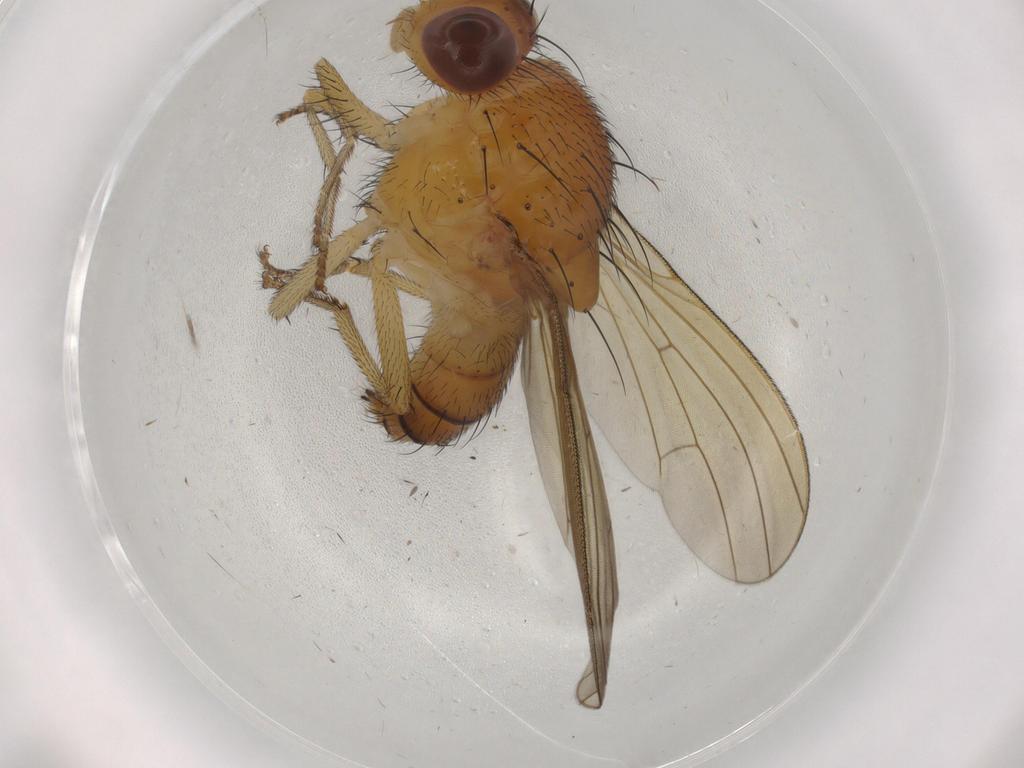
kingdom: Animalia
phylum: Arthropoda
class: Insecta
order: Diptera
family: Lauxaniidae
